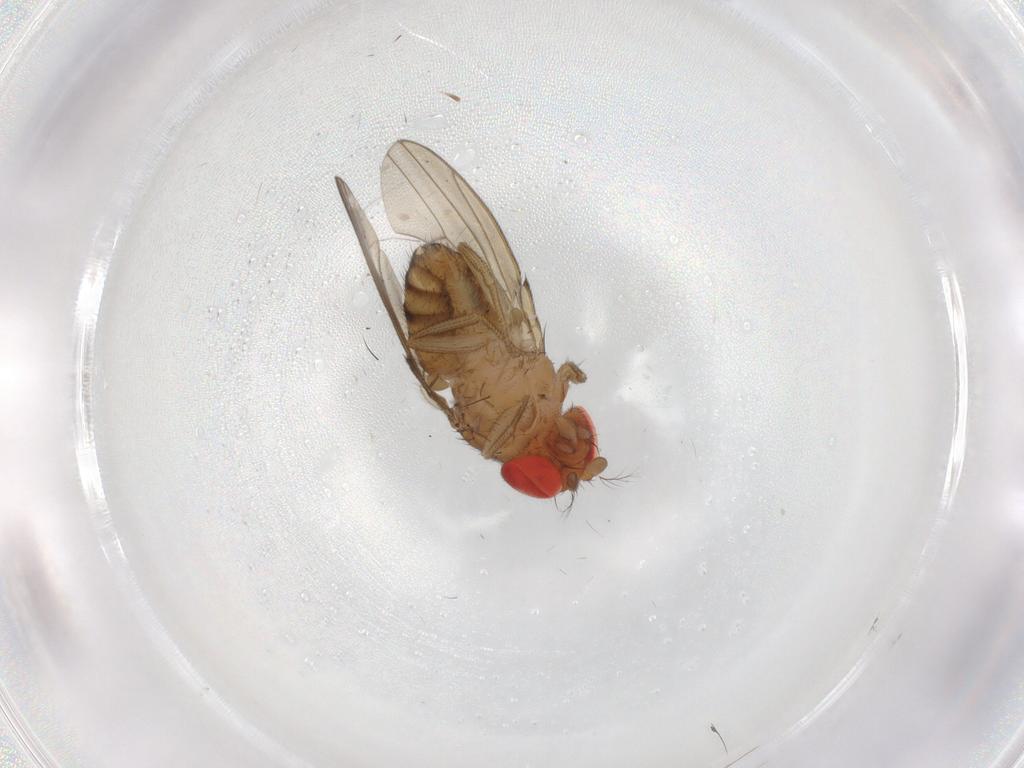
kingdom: Animalia
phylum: Arthropoda
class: Insecta
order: Diptera
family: Drosophilidae
